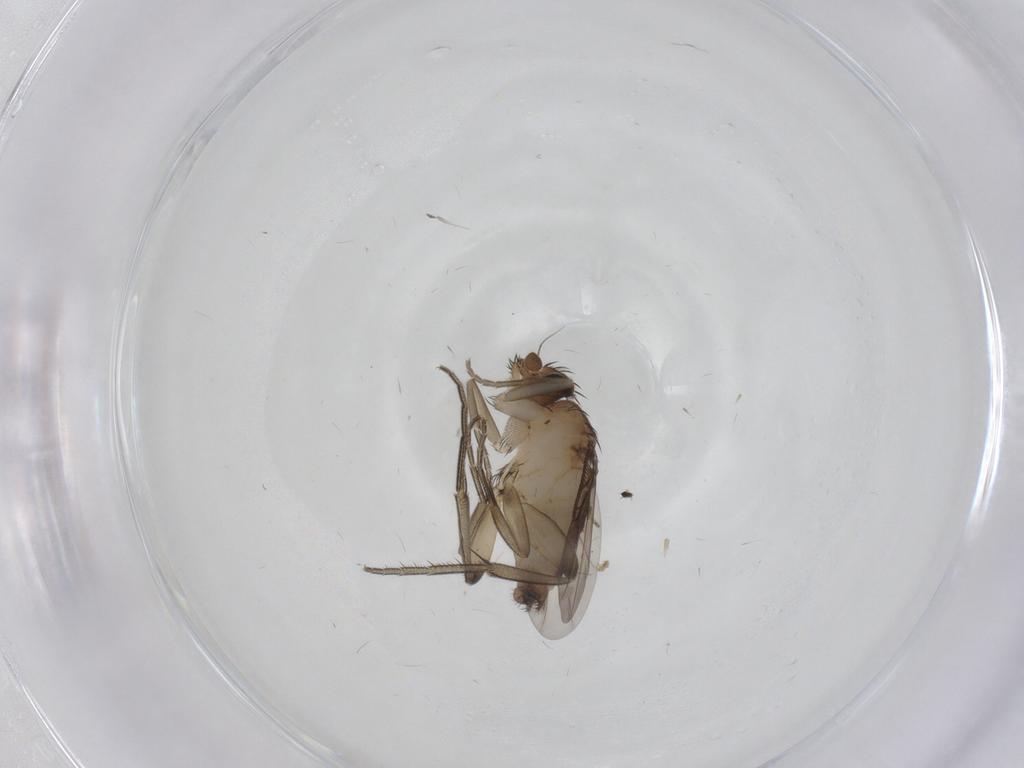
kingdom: Animalia
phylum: Arthropoda
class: Insecta
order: Diptera
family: Phoridae
